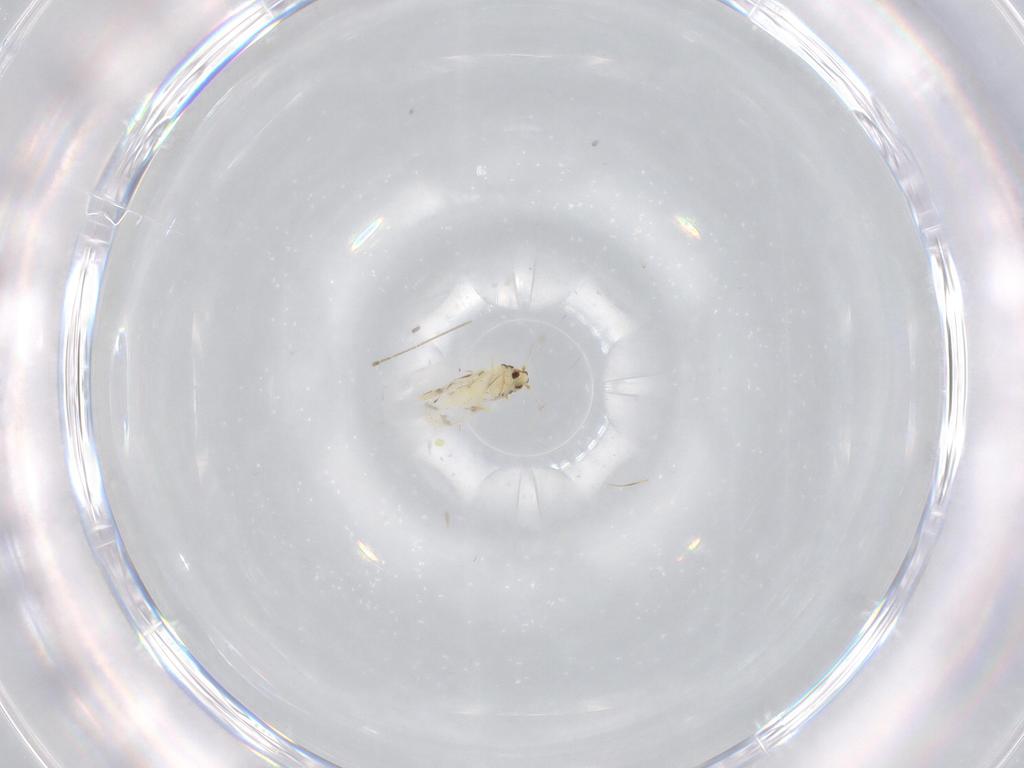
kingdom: Animalia
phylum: Arthropoda
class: Insecta
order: Hemiptera
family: Aleyrodidae
